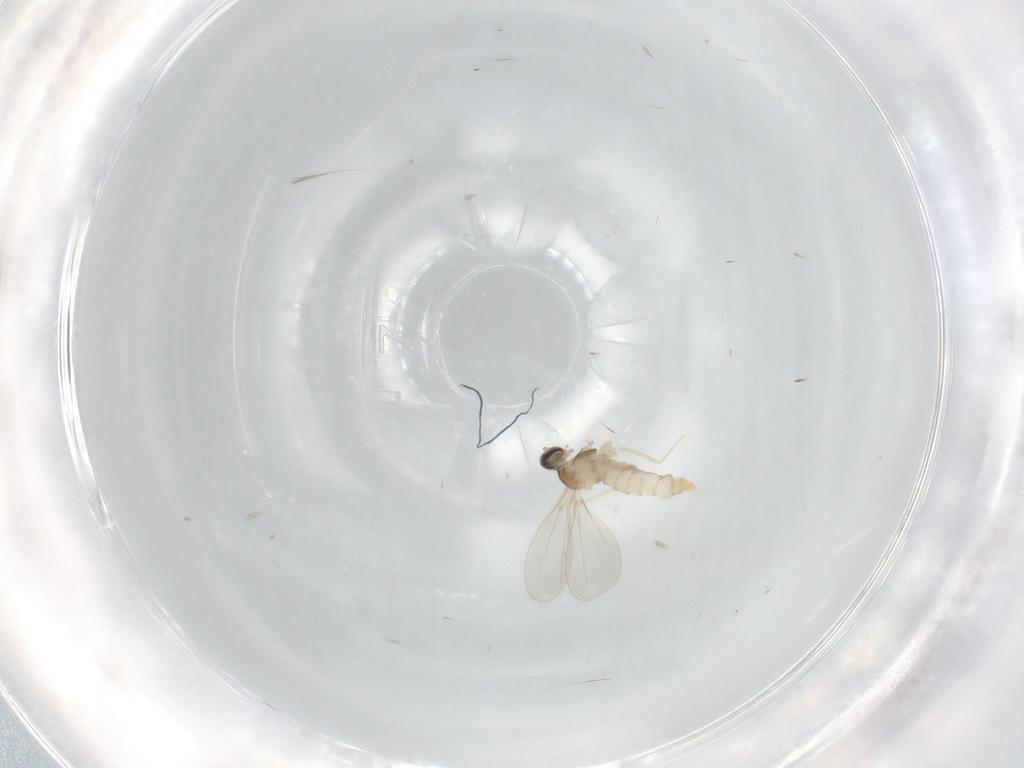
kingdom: Animalia
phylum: Arthropoda
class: Insecta
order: Diptera
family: Cecidomyiidae
